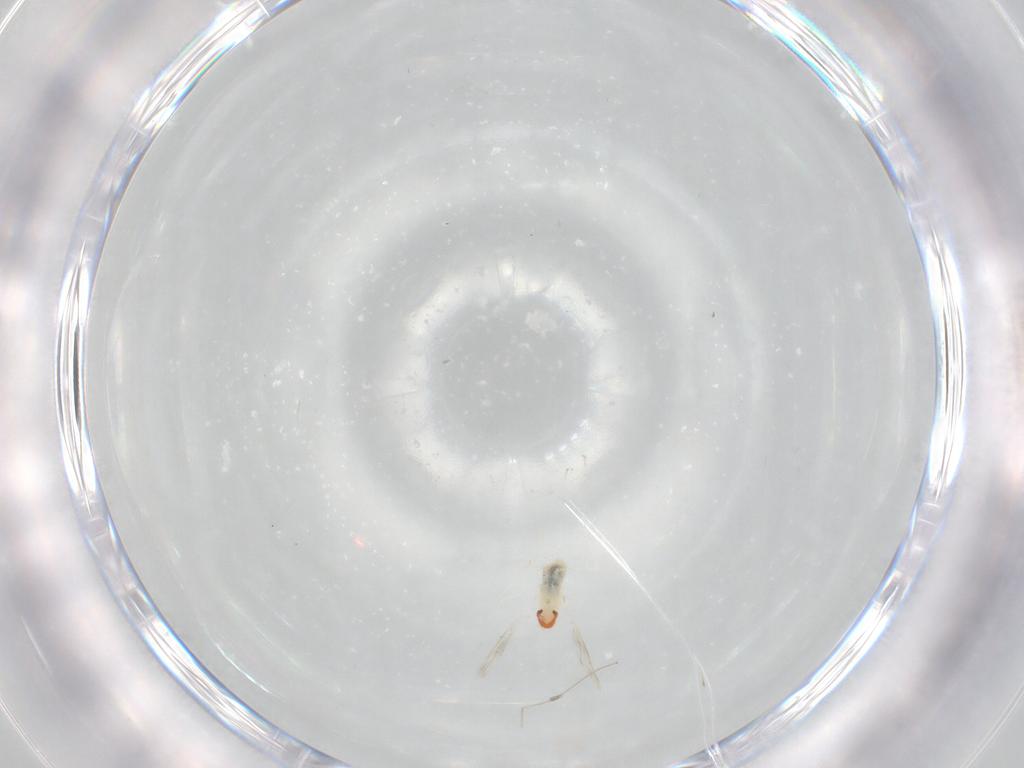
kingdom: Animalia
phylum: Arthropoda
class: Insecta
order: Diptera
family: Cecidomyiidae
